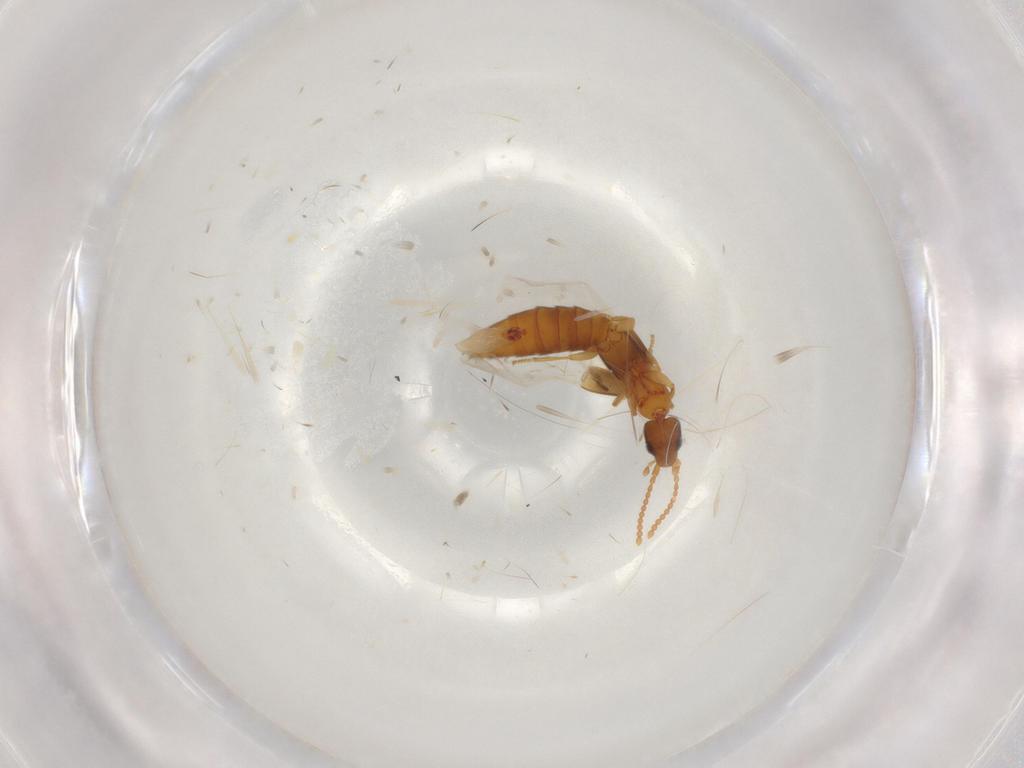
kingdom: Animalia
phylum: Arthropoda
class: Insecta
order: Coleoptera
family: Staphylinidae
